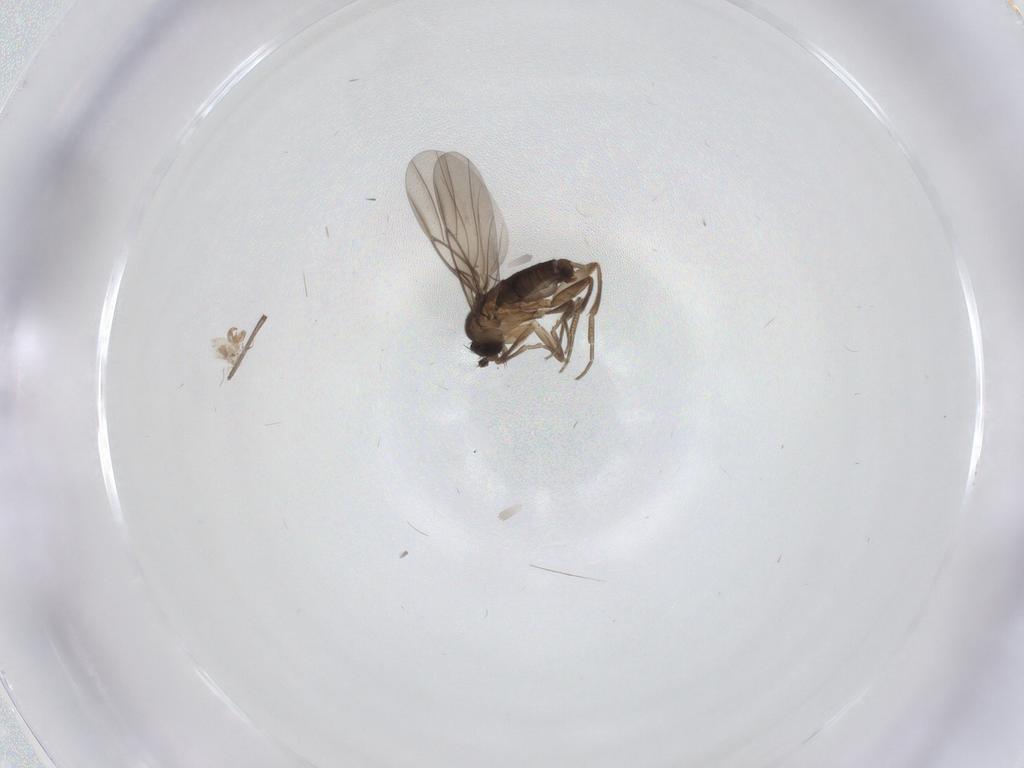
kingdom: Animalia
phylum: Arthropoda
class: Insecta
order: Diptera
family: Phoridae
